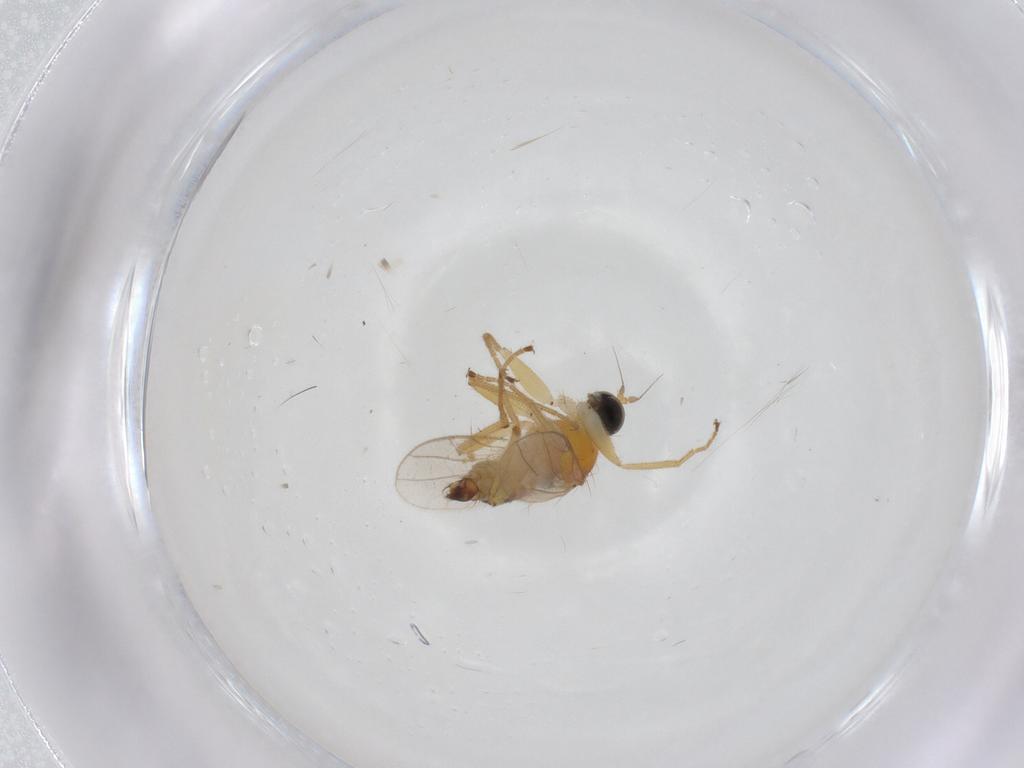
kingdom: Animalia
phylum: Arthropoda
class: Insecta
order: Diptera
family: Hybotidae
